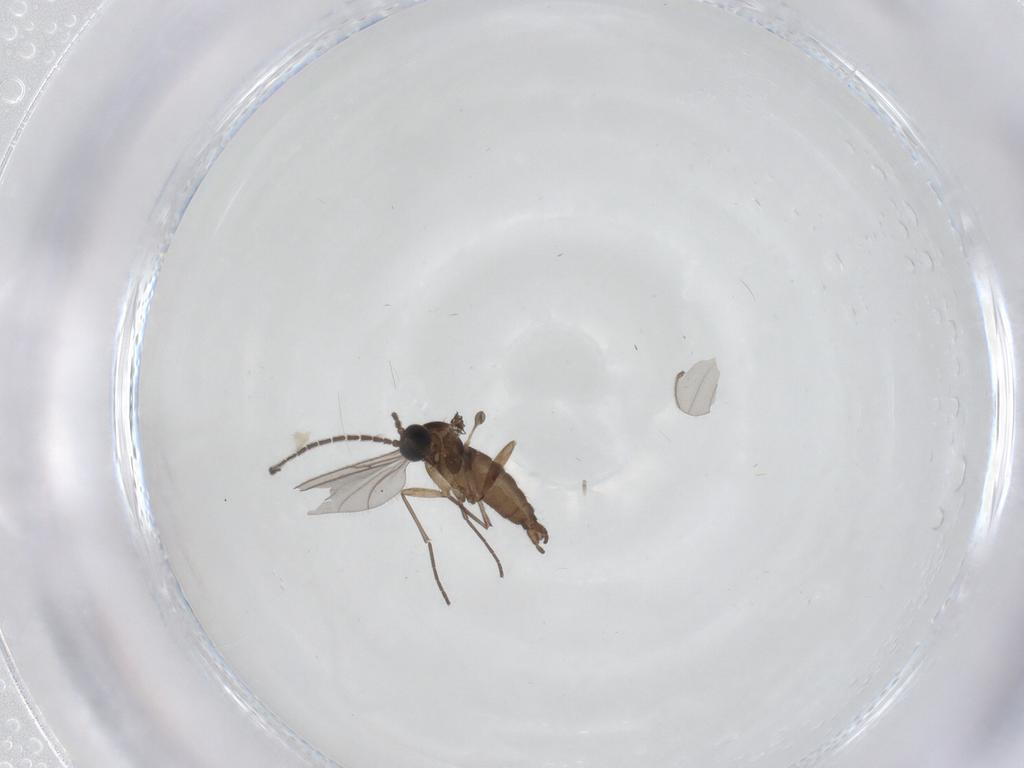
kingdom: Animalia
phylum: Arthropoda
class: Insecta
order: Diptera
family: Sciaridae
